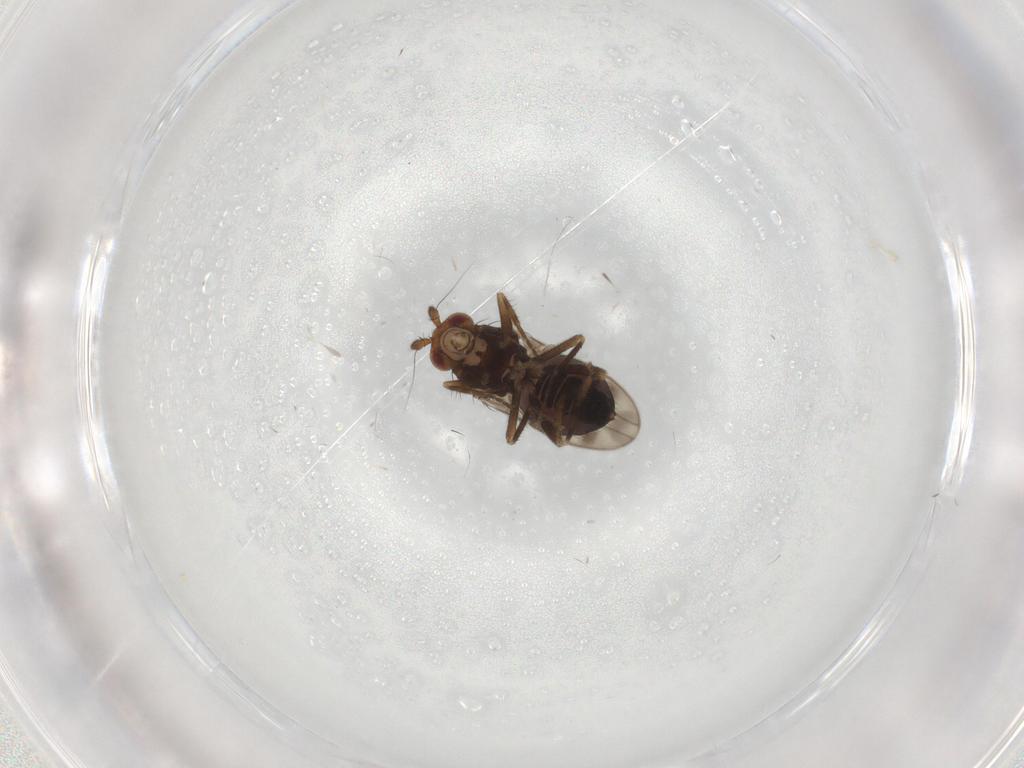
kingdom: Animalia
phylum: Arthropoda
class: Insecta
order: Diptera
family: Sphaeroceridae
